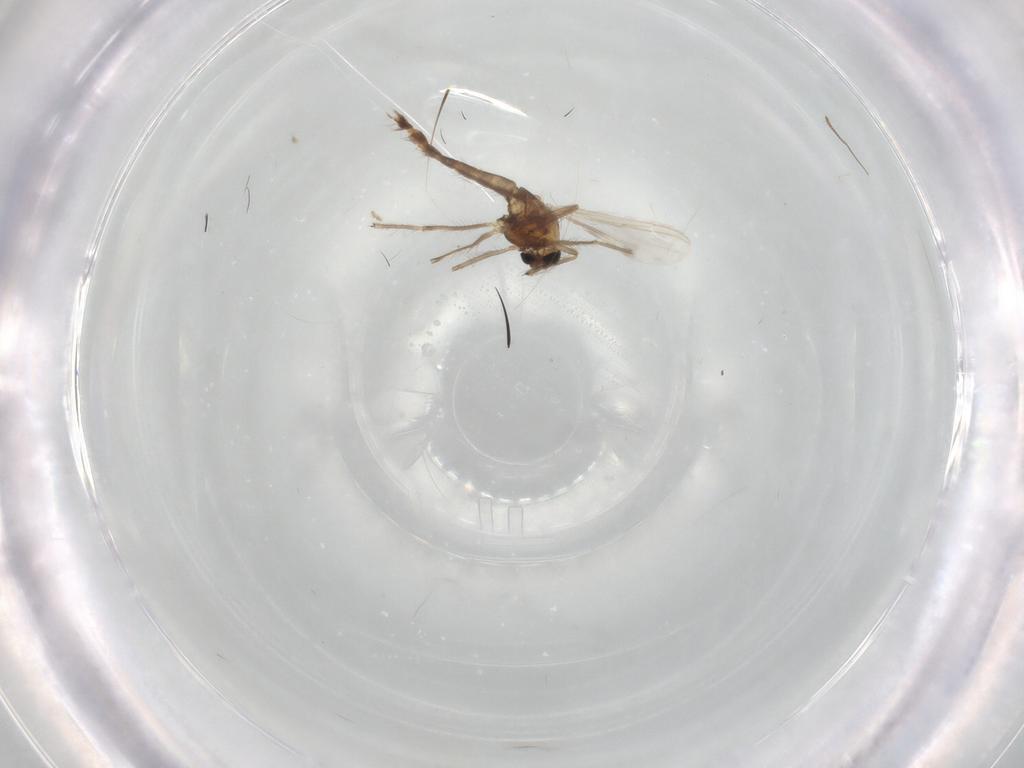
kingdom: Animalia
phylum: Arthropoda
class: Insecta
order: Diptera
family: Chironomidae
